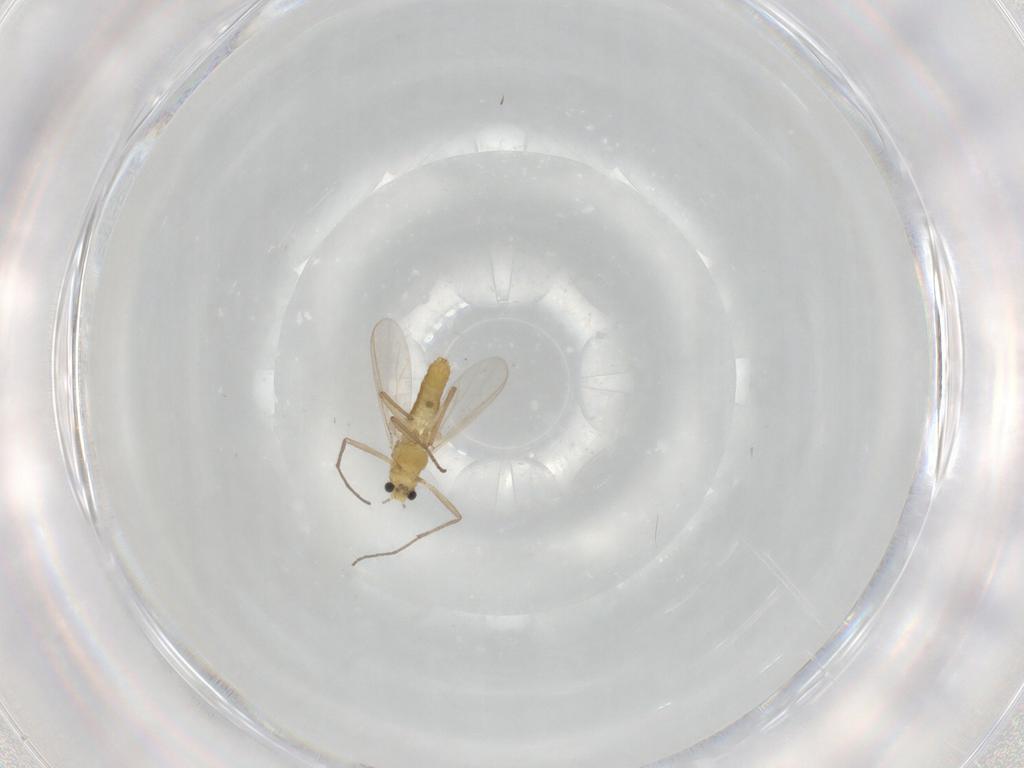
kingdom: Animalia
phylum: Arthropoda
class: Insecta
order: Diptera
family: Chironomidae
